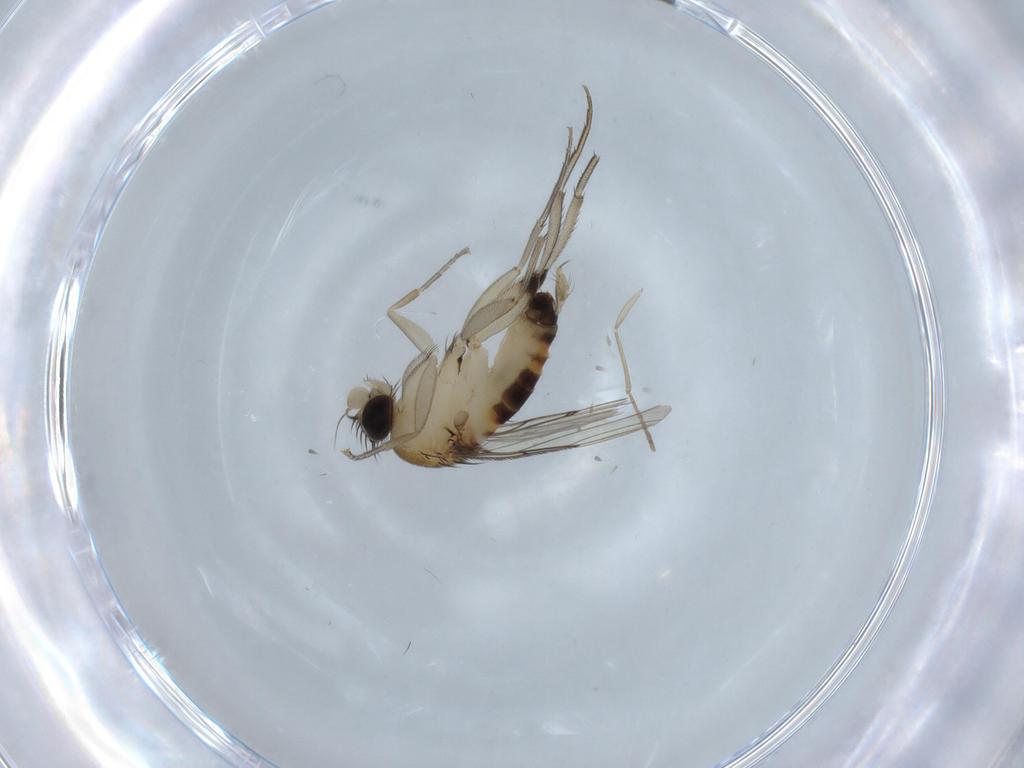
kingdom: Animalia
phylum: Arthropoda
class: Insecta
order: Diptera
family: Phoridae
